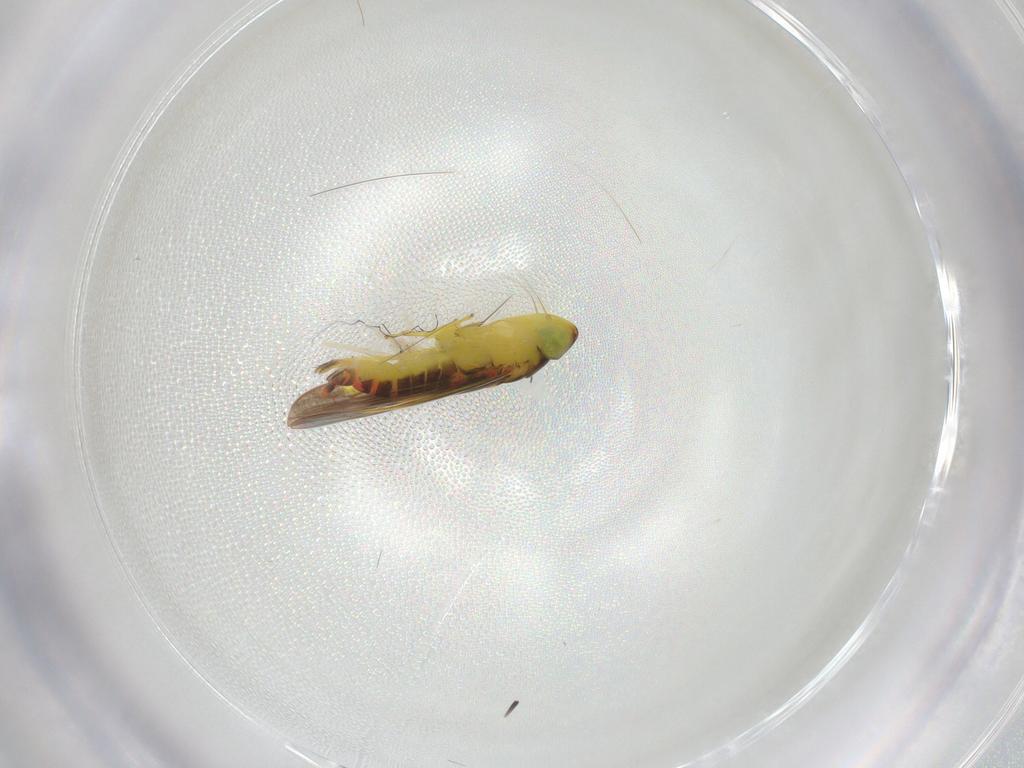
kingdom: Animalia
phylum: Arthropoda
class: Insecta
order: Hemiptera
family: Cicadellidae
